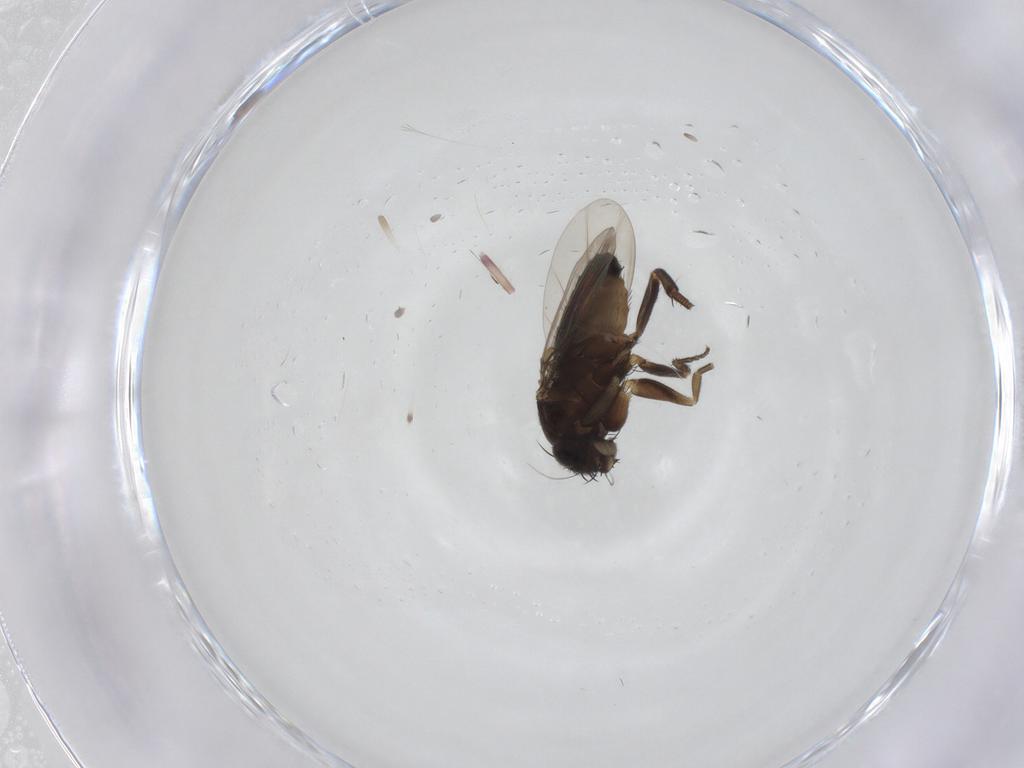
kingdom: Animalia
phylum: Arthropoda
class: Insecta
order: Diptera
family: Phoridae
